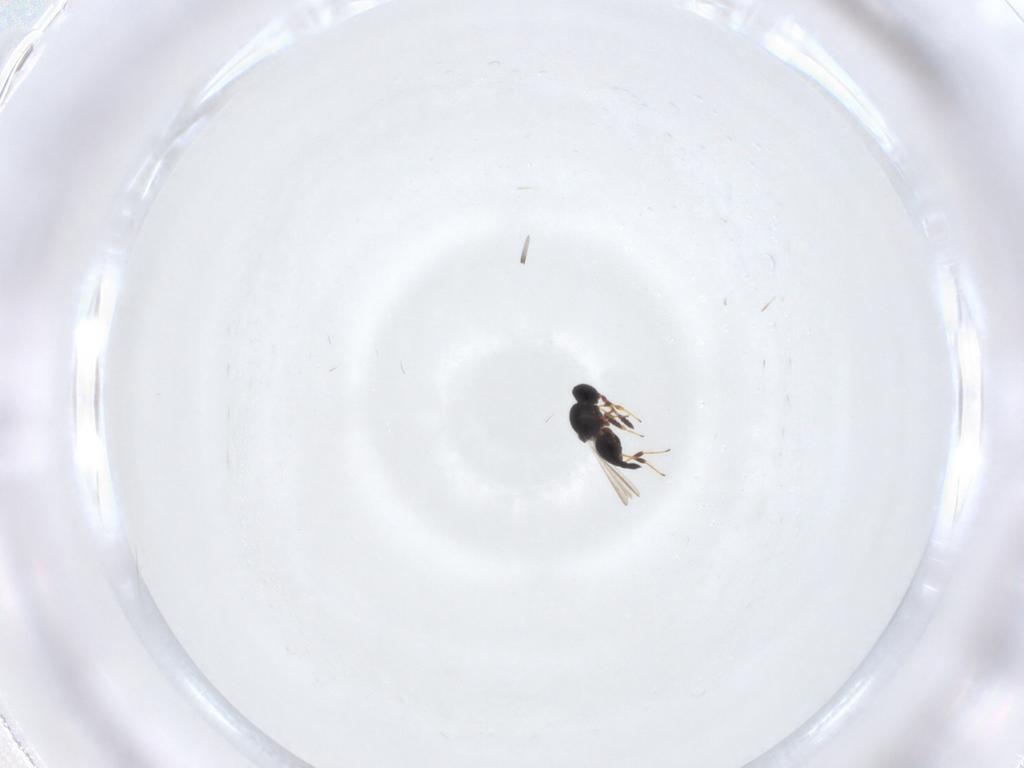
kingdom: Animalia
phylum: Arthropoda
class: Insecta
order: Hymenoptera
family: Platygastridae
